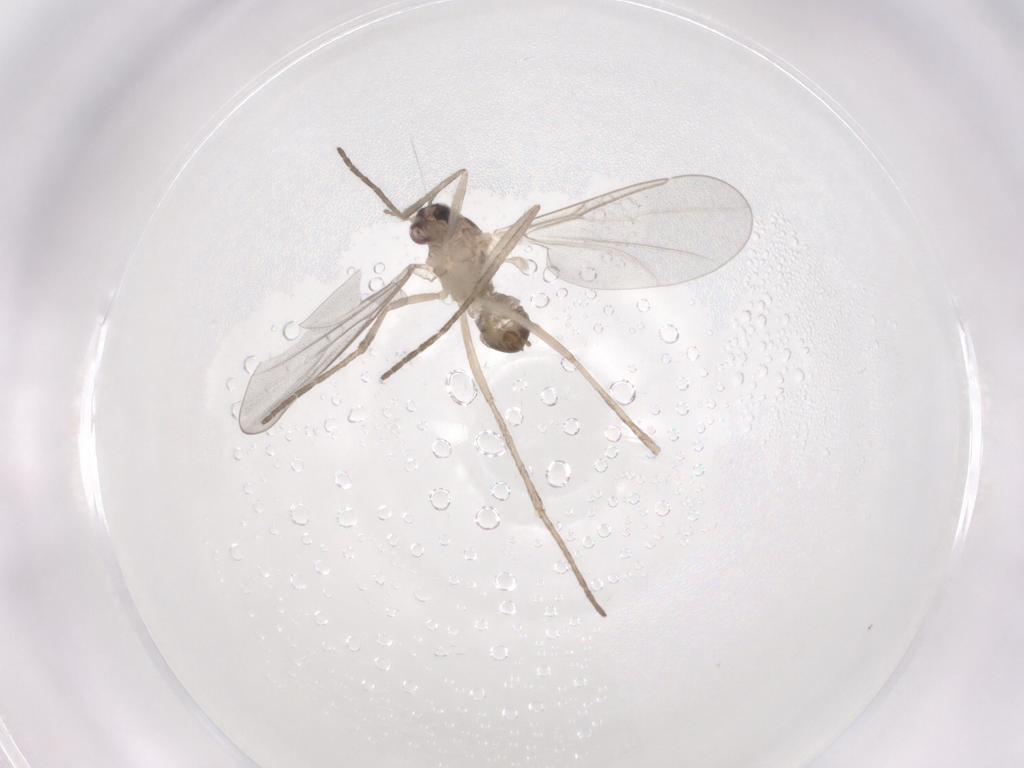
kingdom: Animalia
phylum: Arthropoda
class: Insecta
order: Diptera
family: Cecidomyiidae
